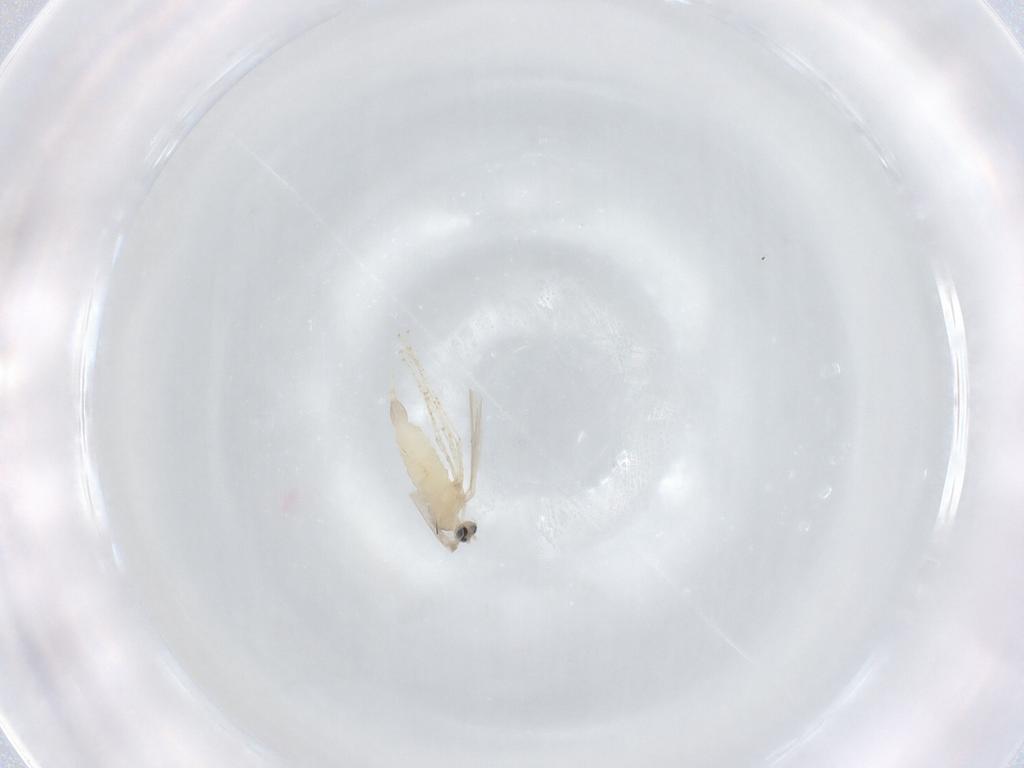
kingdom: Animalia
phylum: Arthropoda
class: Insecta
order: Diptera
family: Cecidomyiidae
